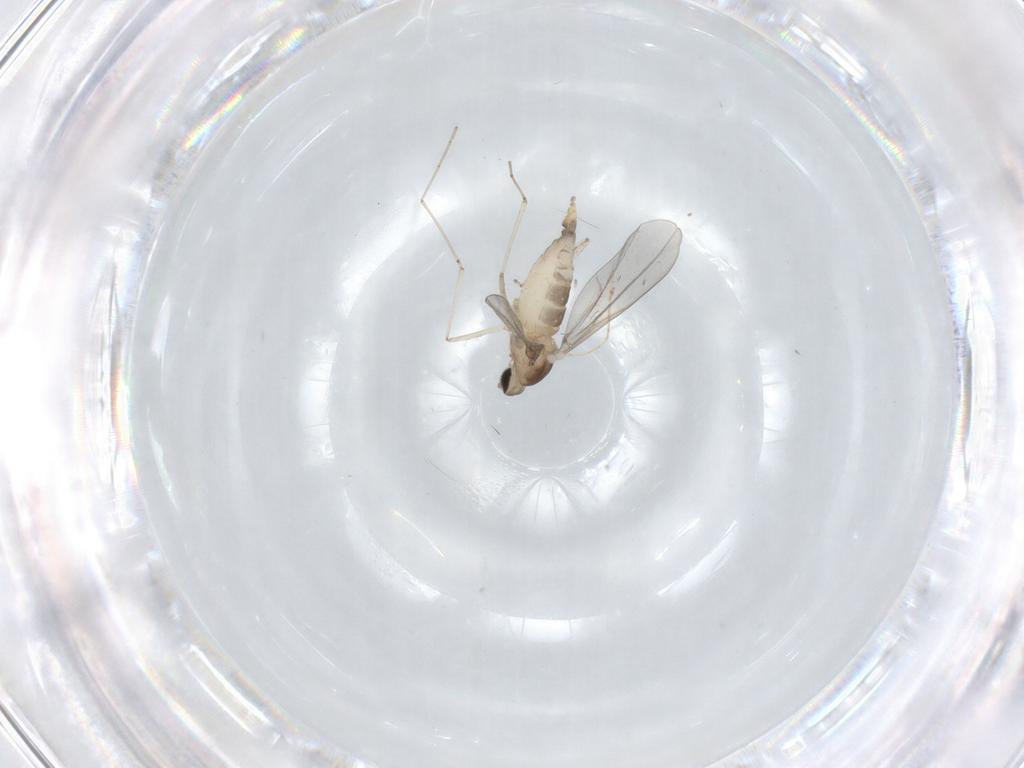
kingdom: Animalia
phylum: Arthropoda
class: Insecta
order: Diptera
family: Cecidomyiidae
